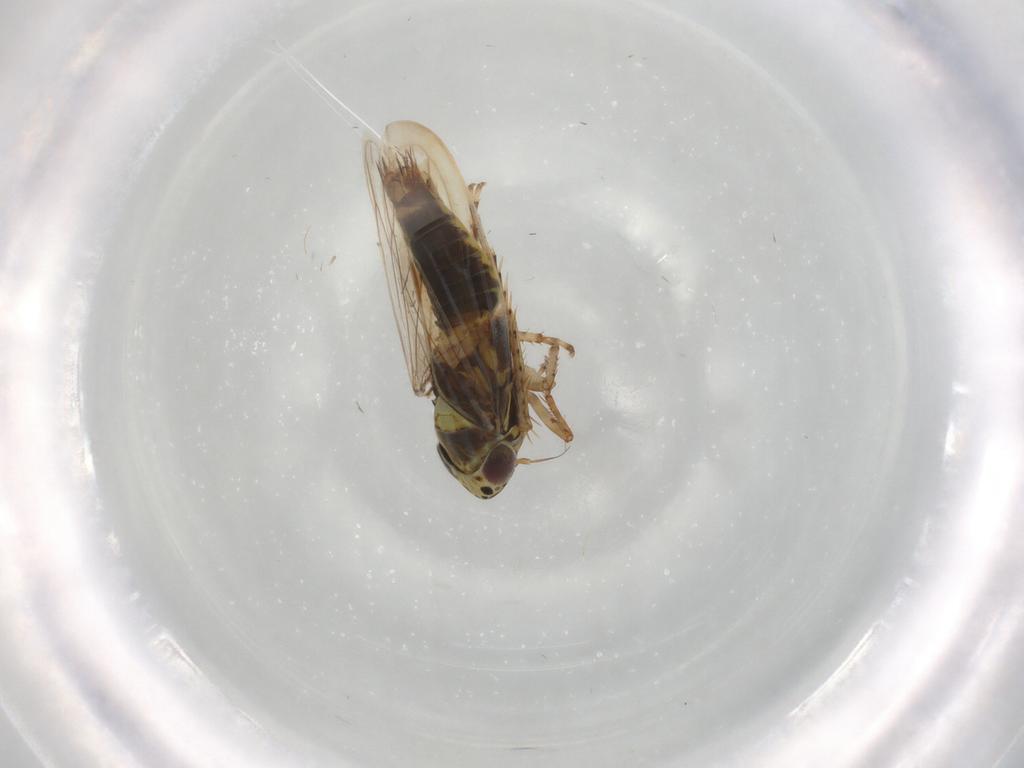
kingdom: Animalia
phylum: Arthropoda
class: Insecta
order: Hemiptera
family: Cicadellidae
